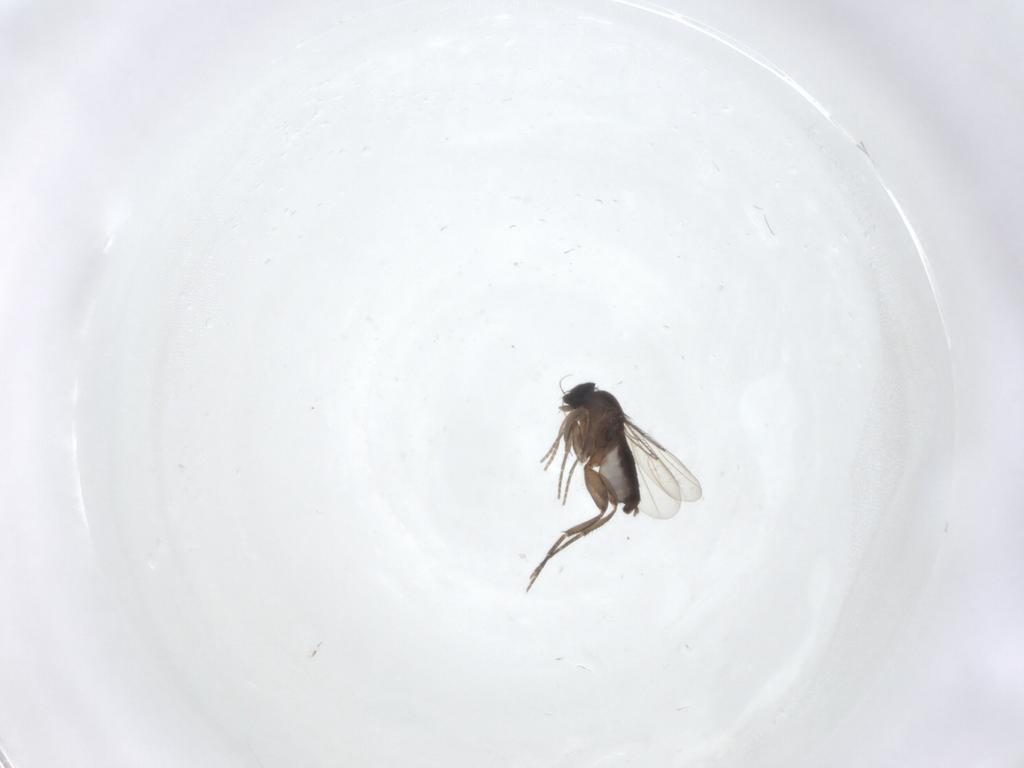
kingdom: Animalia
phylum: Arthropoda
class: Insecta
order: Diptera
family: Phoridae
